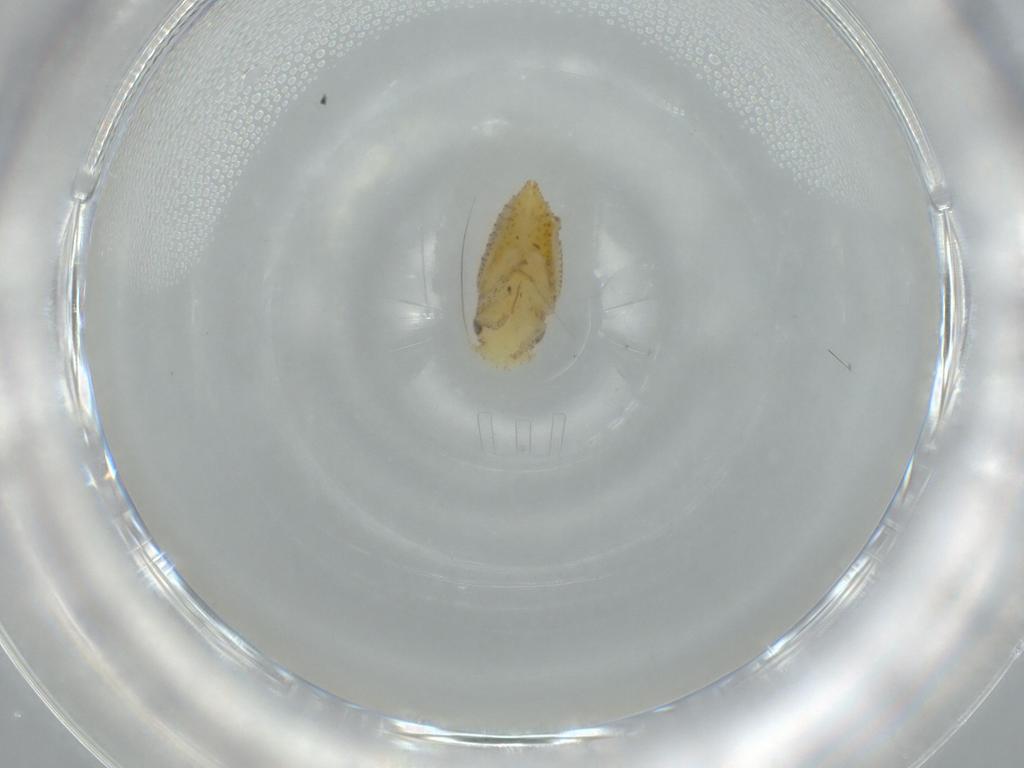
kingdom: Animalia
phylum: Arthropoda
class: Insecta
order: Hemiptera
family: Cicadellidae
